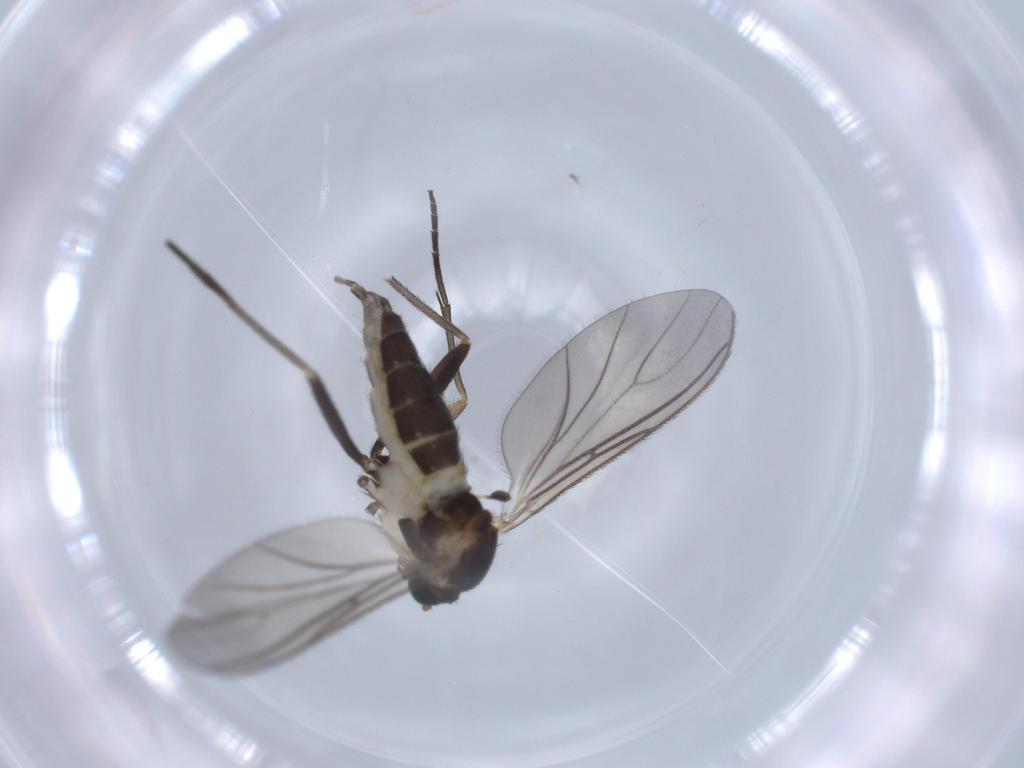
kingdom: Animalia
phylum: Arthropoda
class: Insecta
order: Diptera
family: Sciaridae
